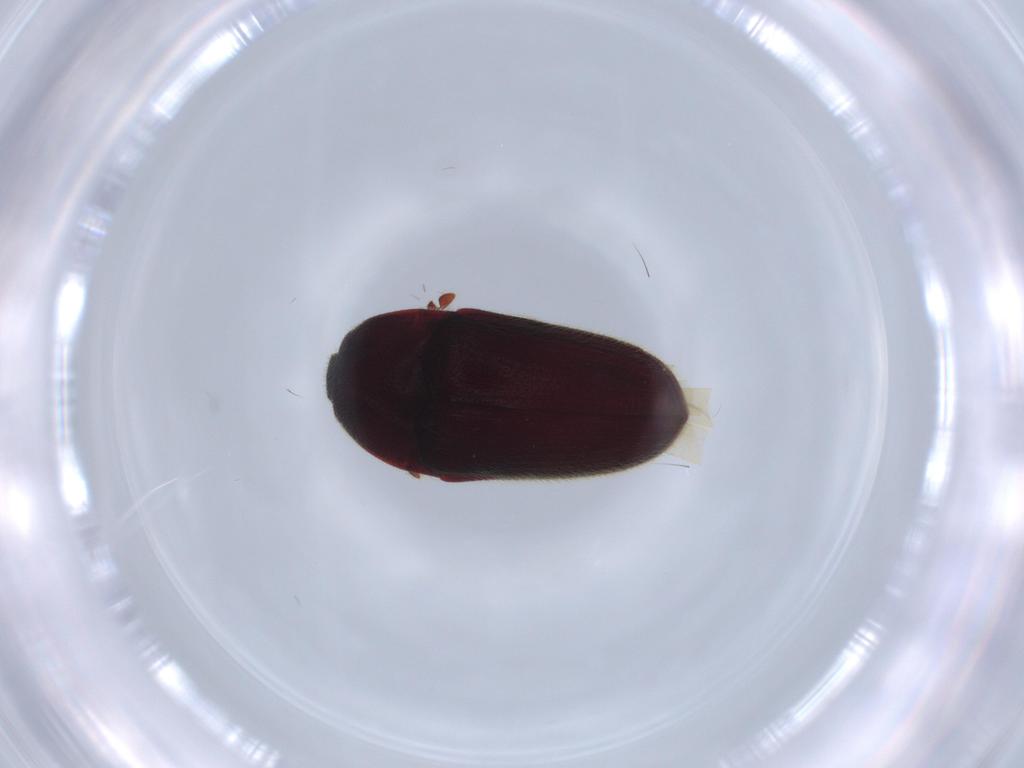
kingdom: Animalia
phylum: Arthropoda
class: Insecta
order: Coleoptera
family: Throscidae
